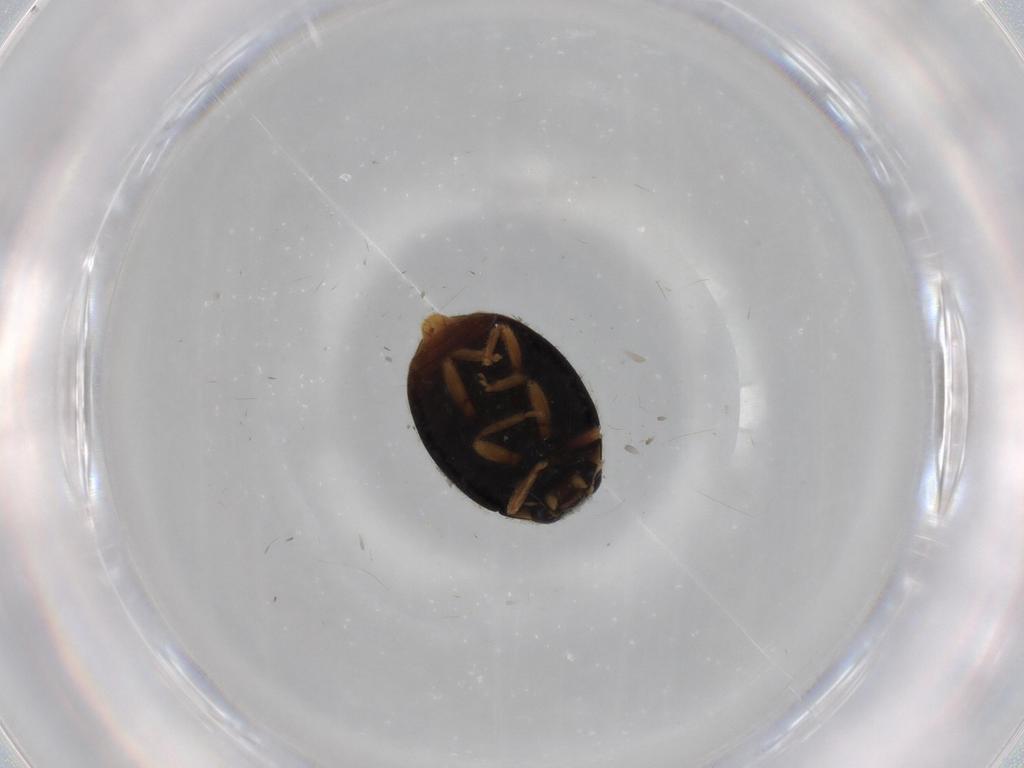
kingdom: Animalia
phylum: Arthropoda
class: Insecta
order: Coleoptera
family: Coccinellidae
